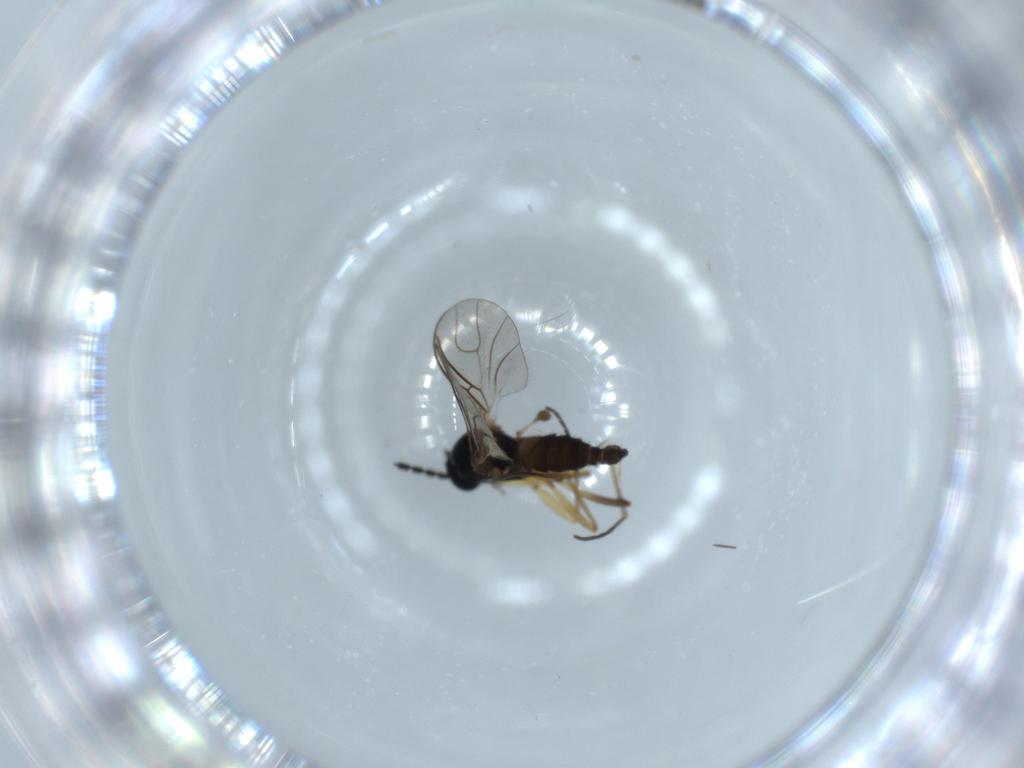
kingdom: Animalia
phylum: Arthropoda
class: Insecta
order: Diptera
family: Sciaridae
